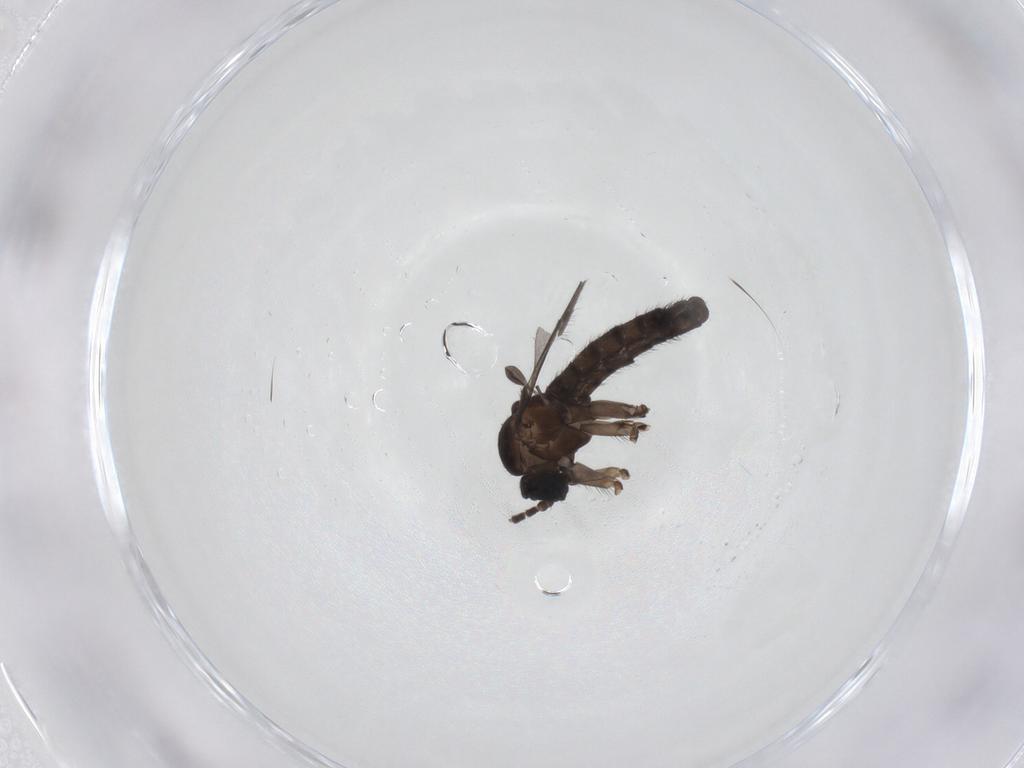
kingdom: Animalia
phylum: Arthropoda
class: Insecta
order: Diptera
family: Sciaridae
